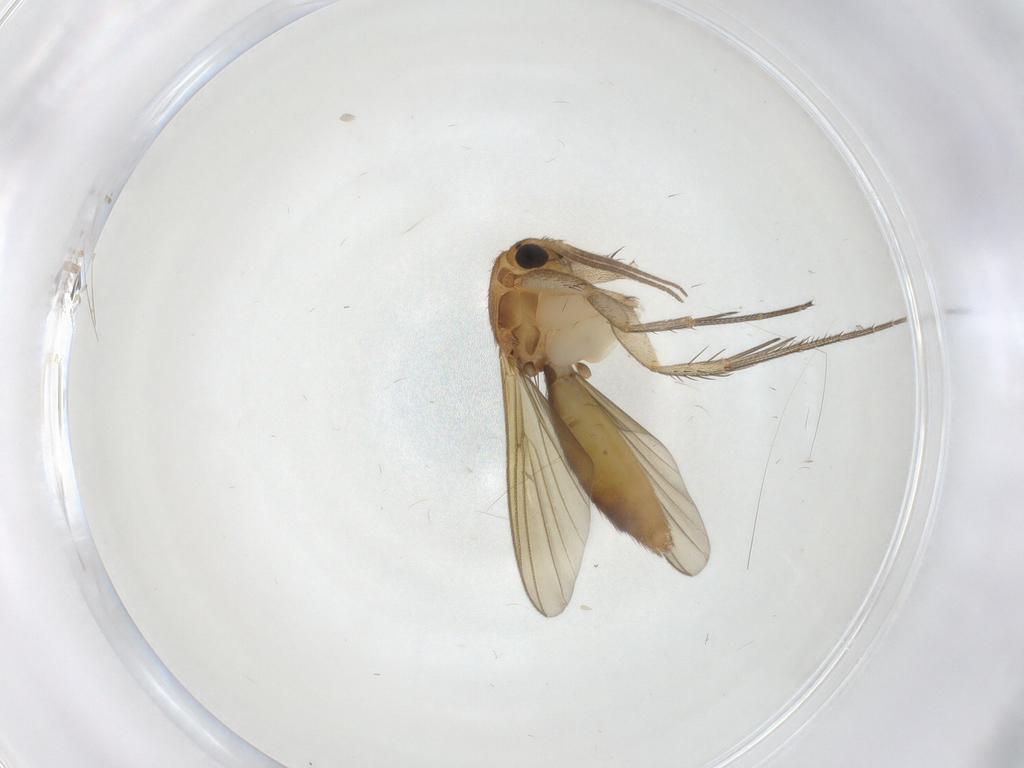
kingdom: Animalia
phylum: Arthropoda
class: Insecta
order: Diptera
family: Mycetophilidae
